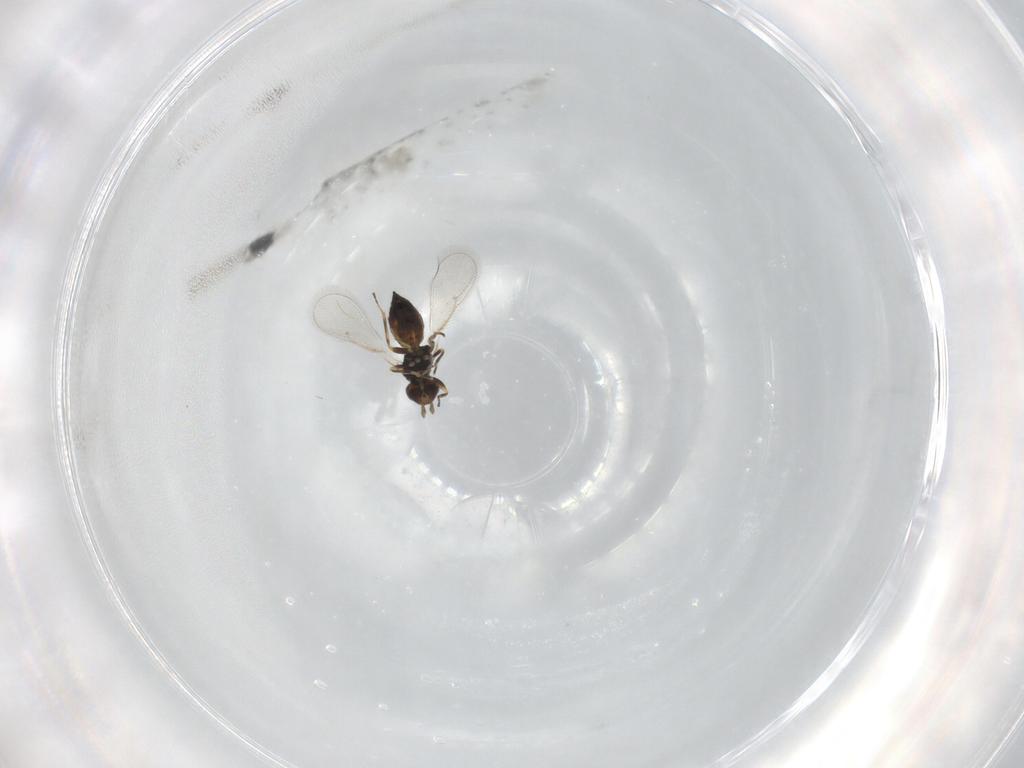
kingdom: Animalia
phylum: Arthropoda
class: Insecta
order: Hymenoptera
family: Eulophidae
